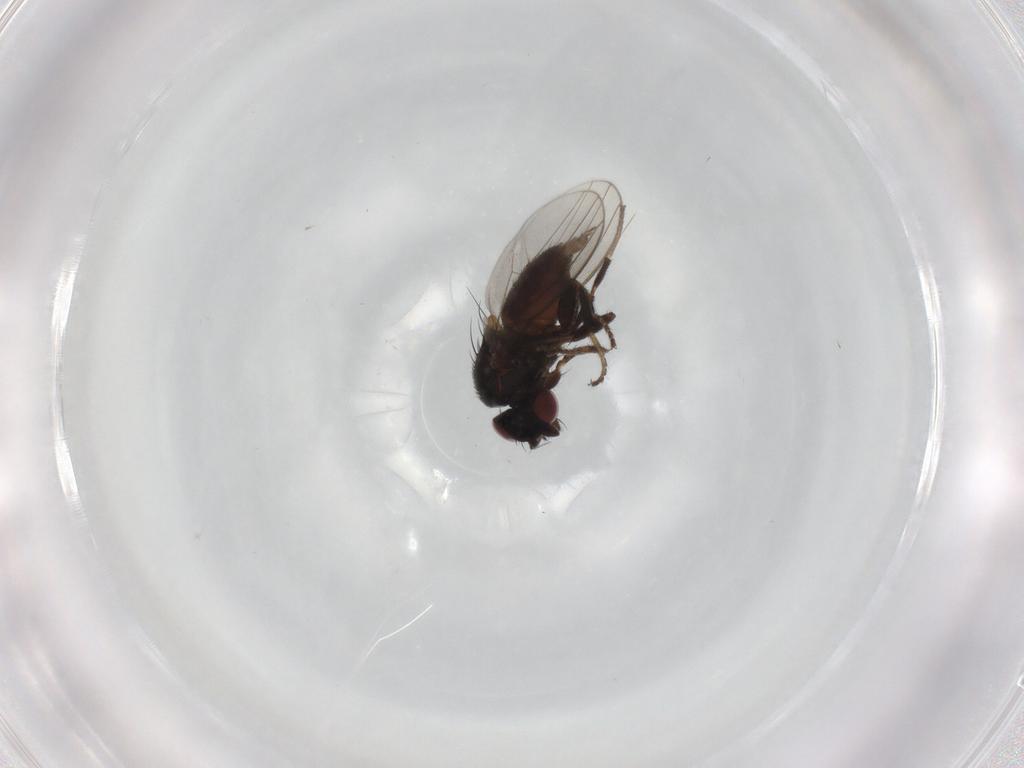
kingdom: Animalia
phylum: Arthropoda
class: Insecta
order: Diptera
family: Milichiidae
